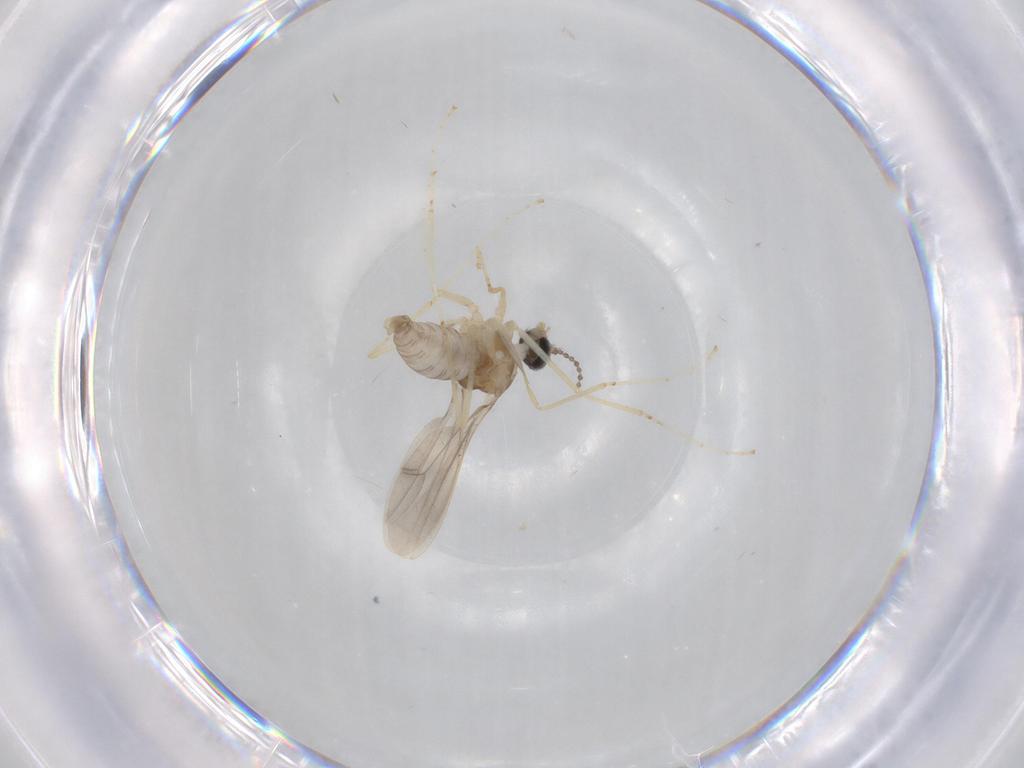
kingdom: Animalia
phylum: Arthropoda
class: Insecta
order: Diptera
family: Cecidomyiidae
